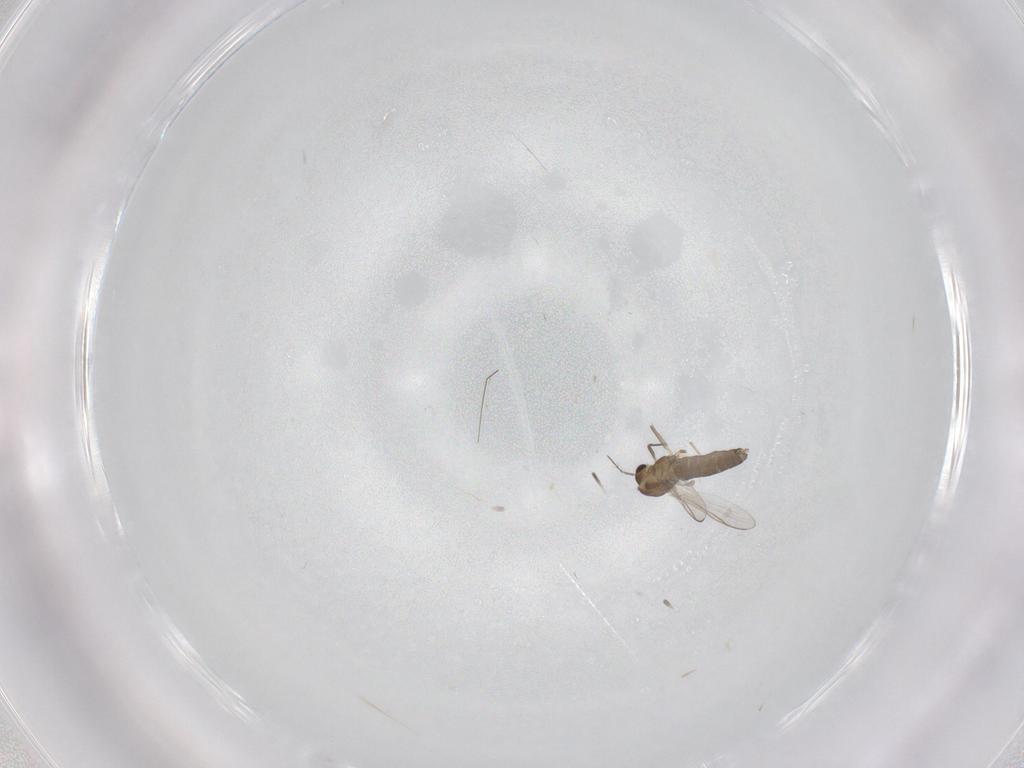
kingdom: Animalia
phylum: Arthropoda
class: Insecta
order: Diptera
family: Chironomidae
